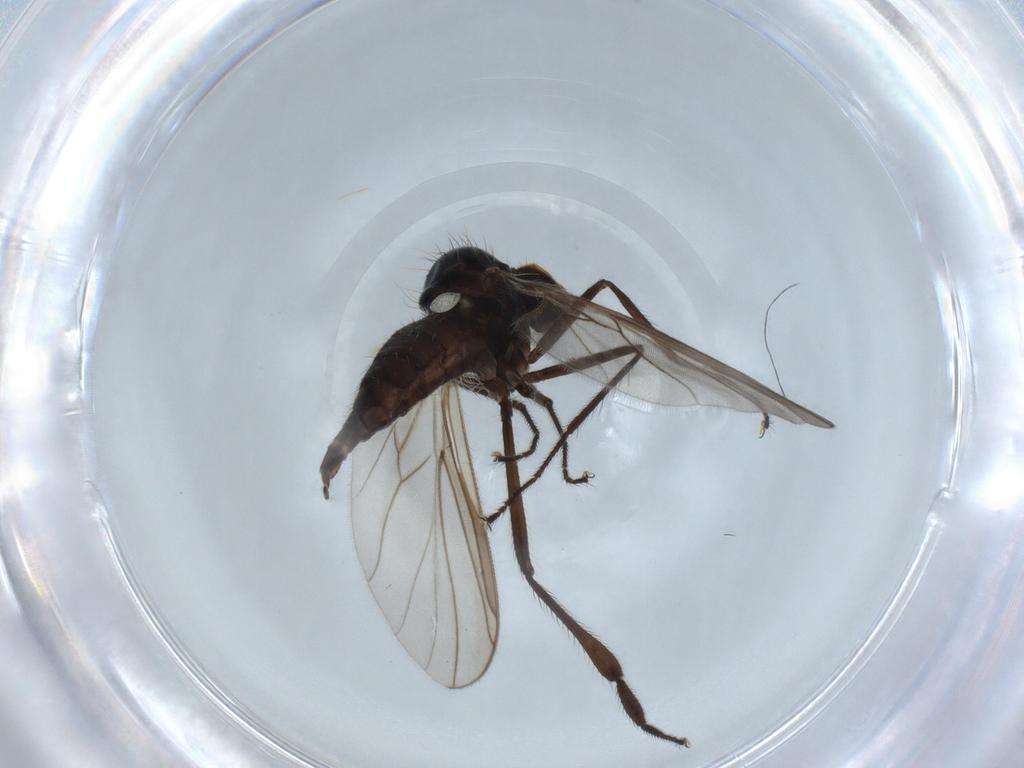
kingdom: Animalia
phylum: Arthropoda
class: Insecta
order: Diptera
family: Hybotidae
